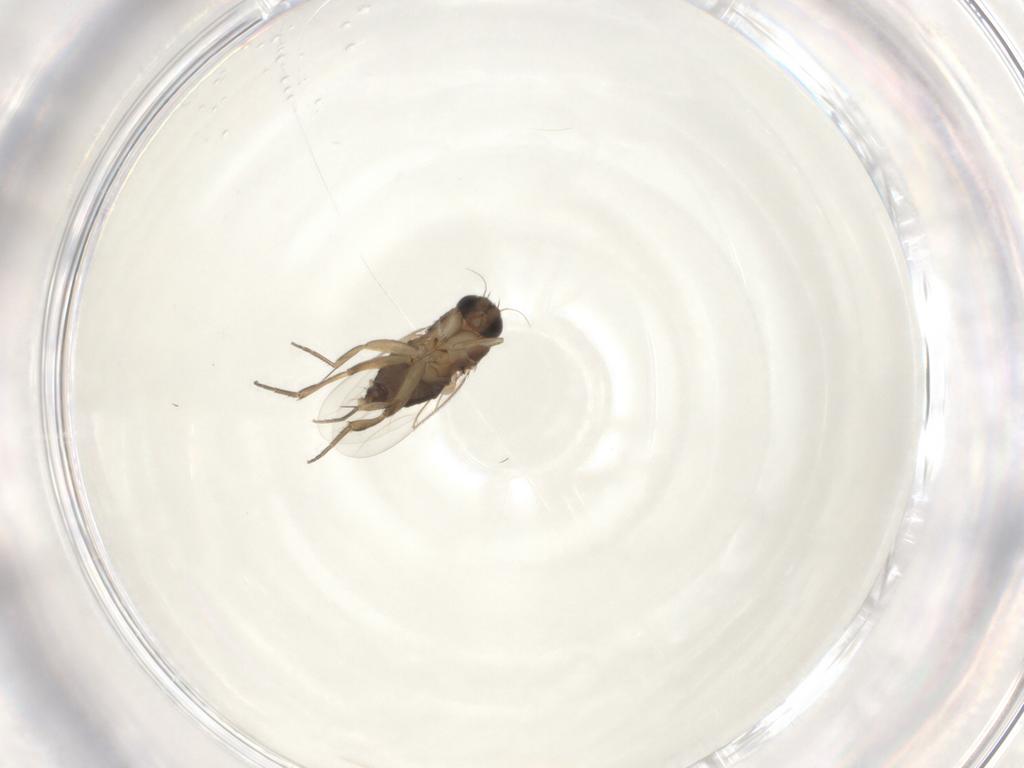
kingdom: Animalia
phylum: Arthropoda
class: Insecta
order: Diptera
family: Phoridae
